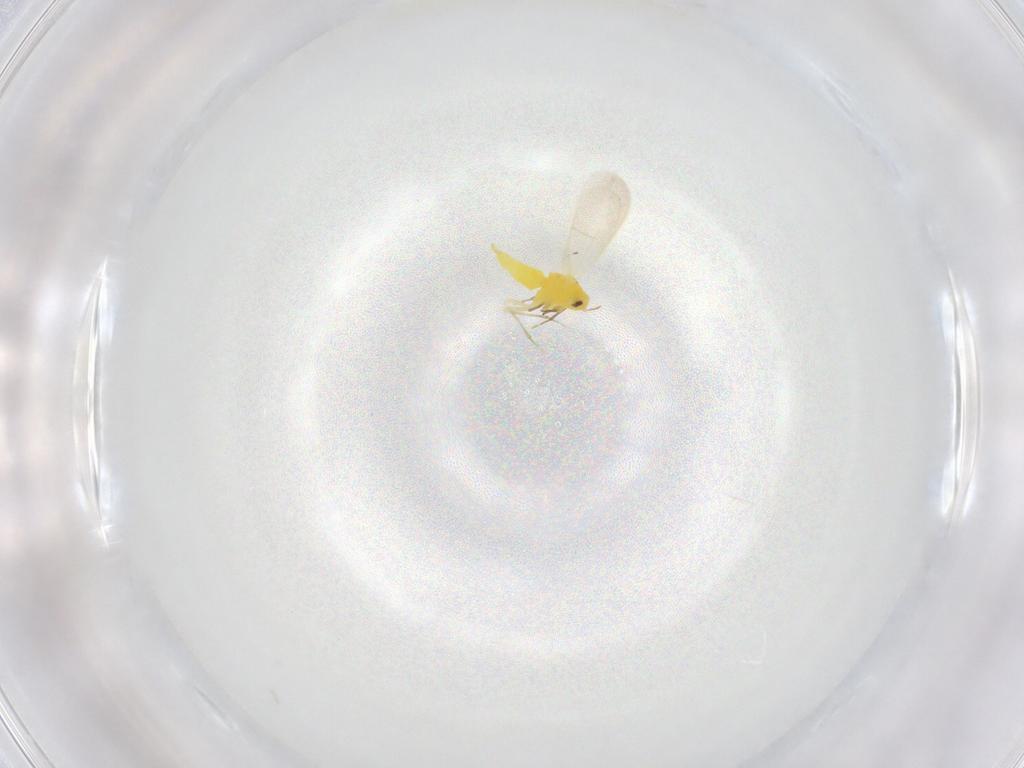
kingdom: Animalia
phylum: Arthropoda
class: Insecta
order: Hemiptera
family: Aleyrodidae
